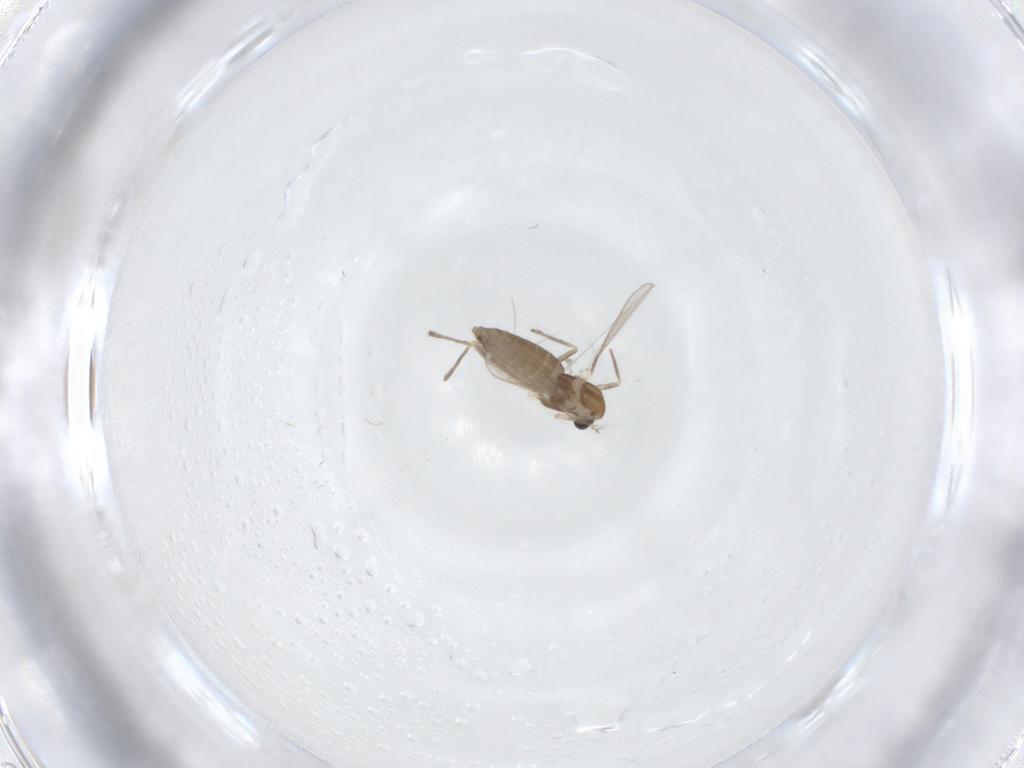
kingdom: Animalia
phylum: Arthropoda
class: Insecta
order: Diptera
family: Chironomidae
